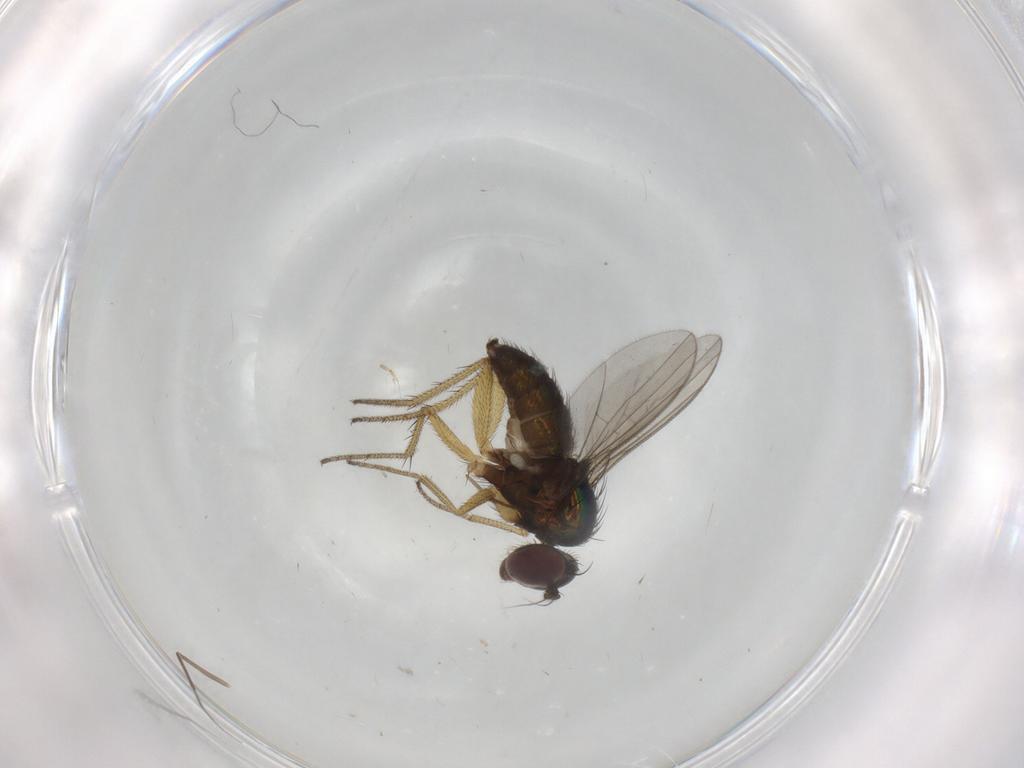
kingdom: Animalia
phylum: Arthropoda
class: Insecta
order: Diptera
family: Dolichopodidae
